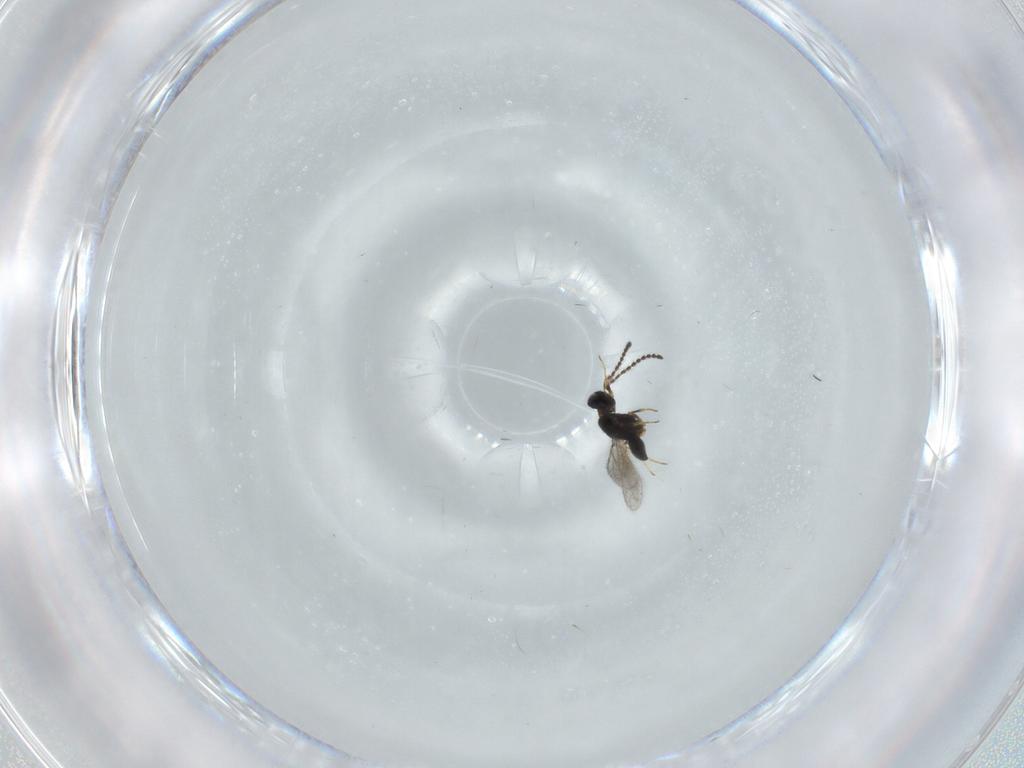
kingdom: Animalia
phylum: Arthropoda
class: Insecta
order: Hymenoptera
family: Scelionidae
